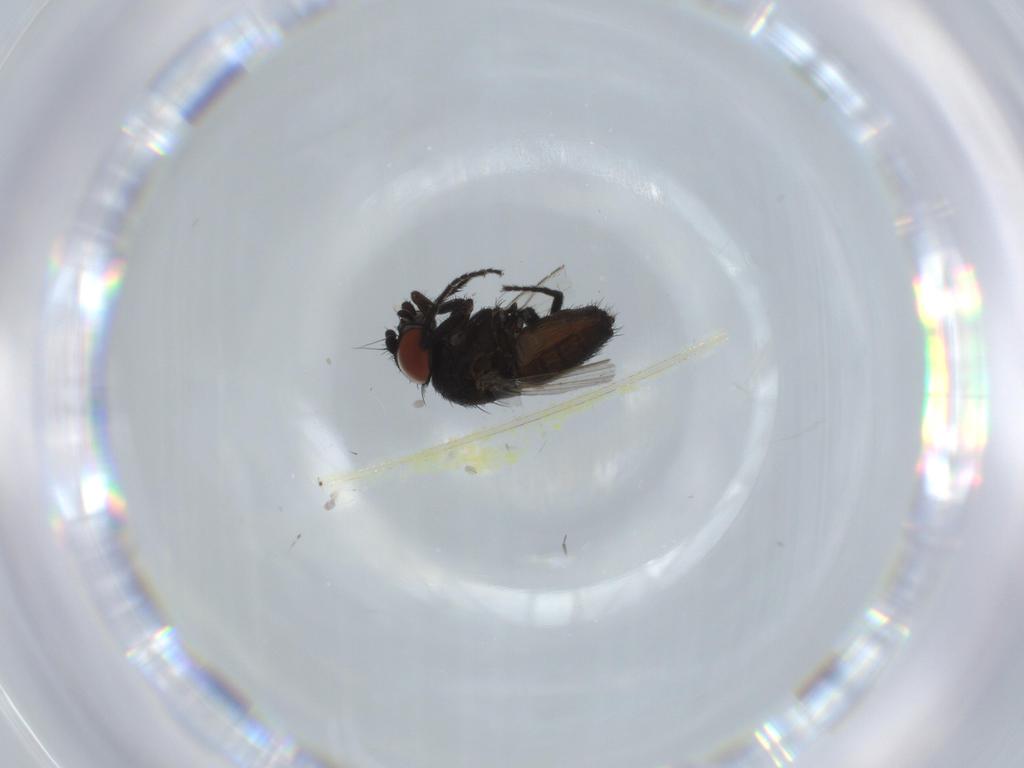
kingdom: Animalia
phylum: Arthropoda
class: Insecta
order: Diptera
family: Milichiidae
